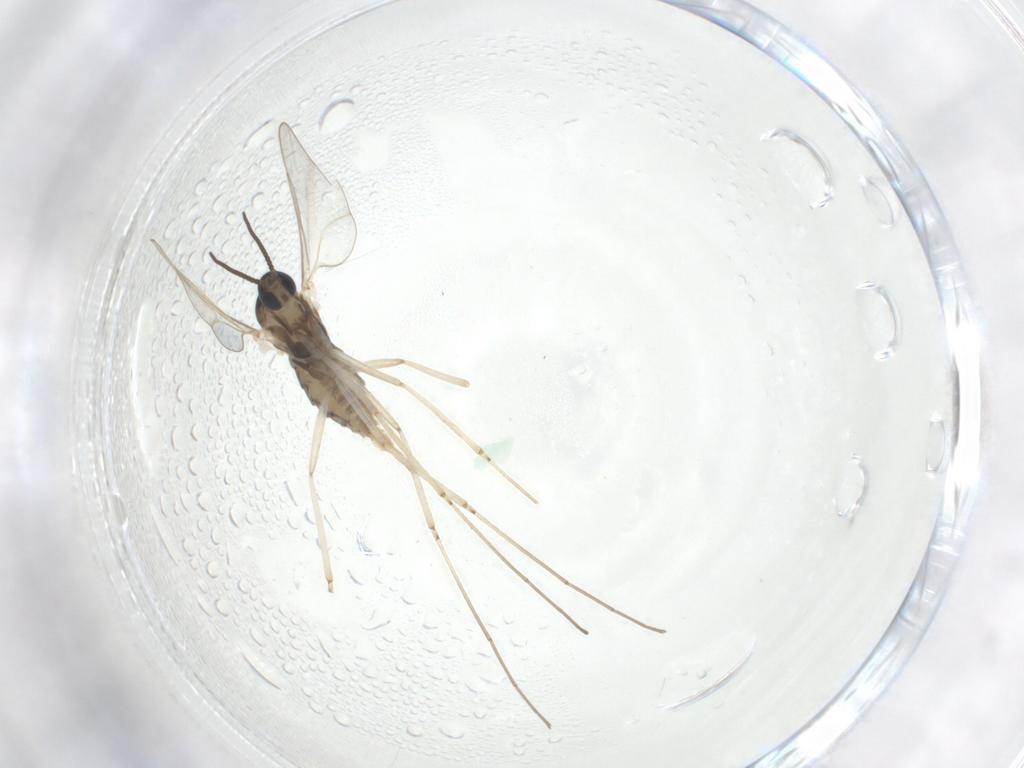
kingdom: Animalia
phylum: Arthropoda
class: Insecta
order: Diptera
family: Cecidomyiidae
